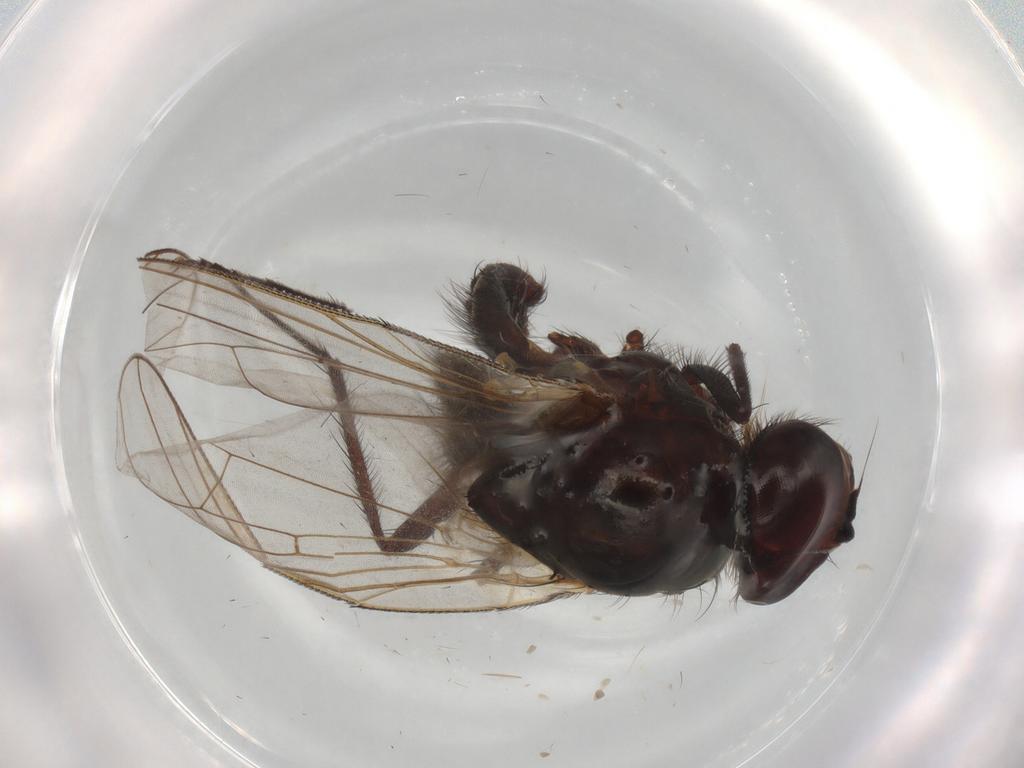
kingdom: Animalia
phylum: Arthropoda
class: Insecta
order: Diptera
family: Anthomyiidae
